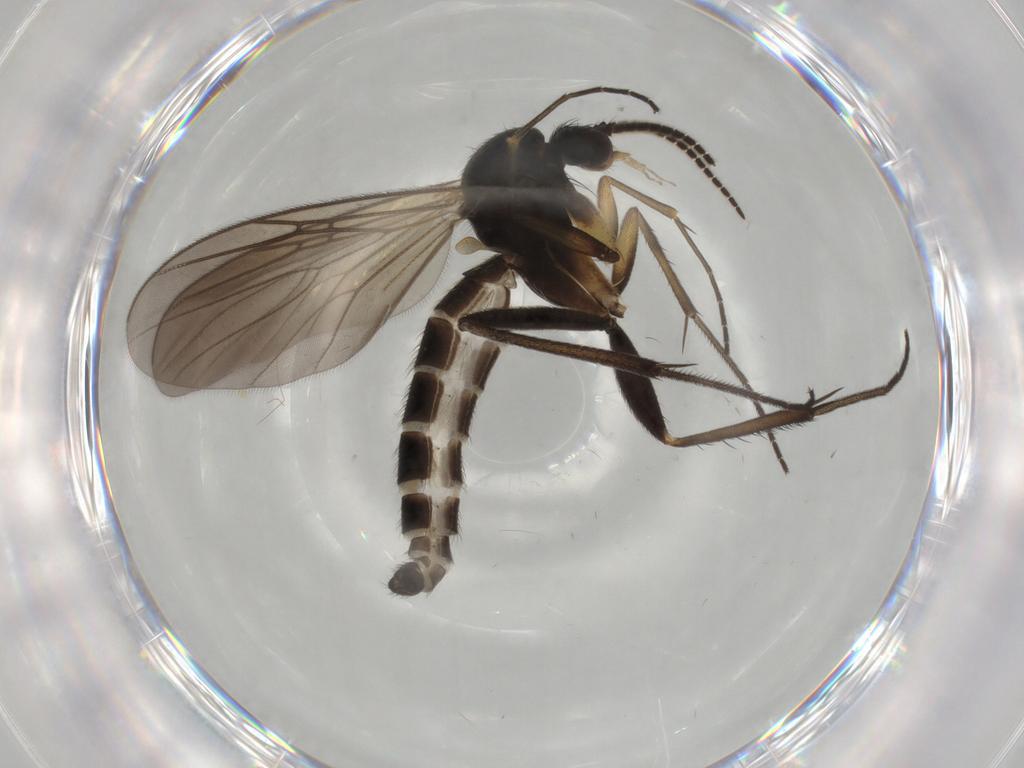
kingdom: Animalia
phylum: Arthropoda
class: Insecta
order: Diptera
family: Mycetophilidae
